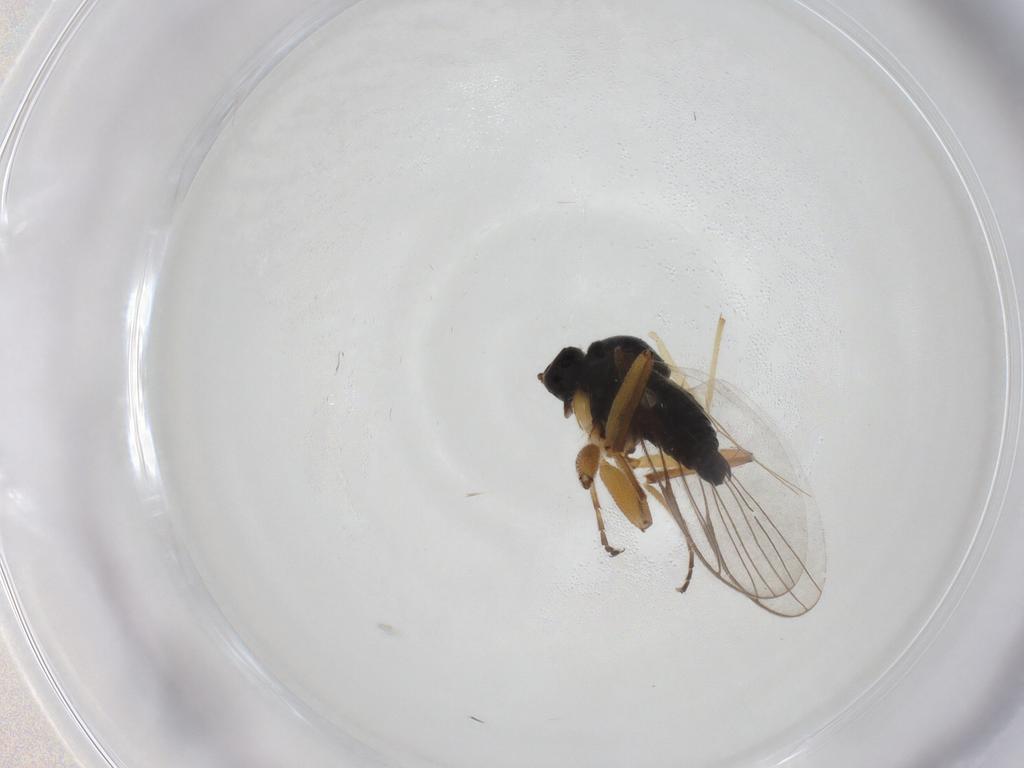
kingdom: Animalia
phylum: Arthropoda
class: Insecta
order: Diptera
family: Hybotidae
